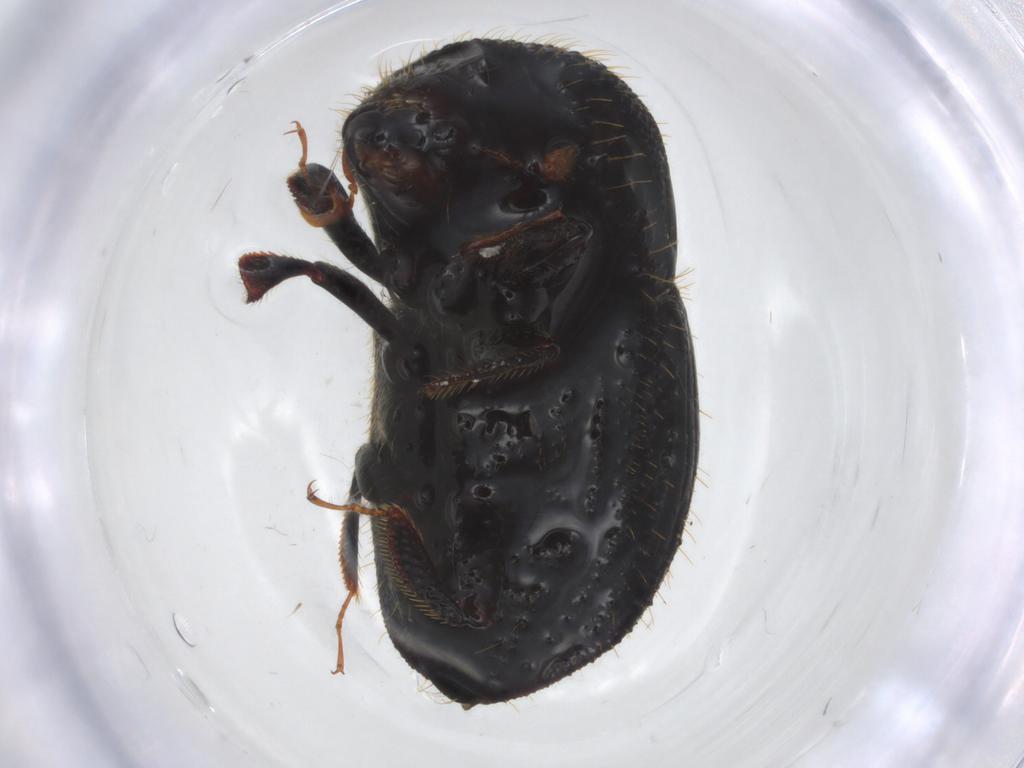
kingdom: Animalia
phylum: Arthropoda
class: Insecta
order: Coleoptera
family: Curculionidae
